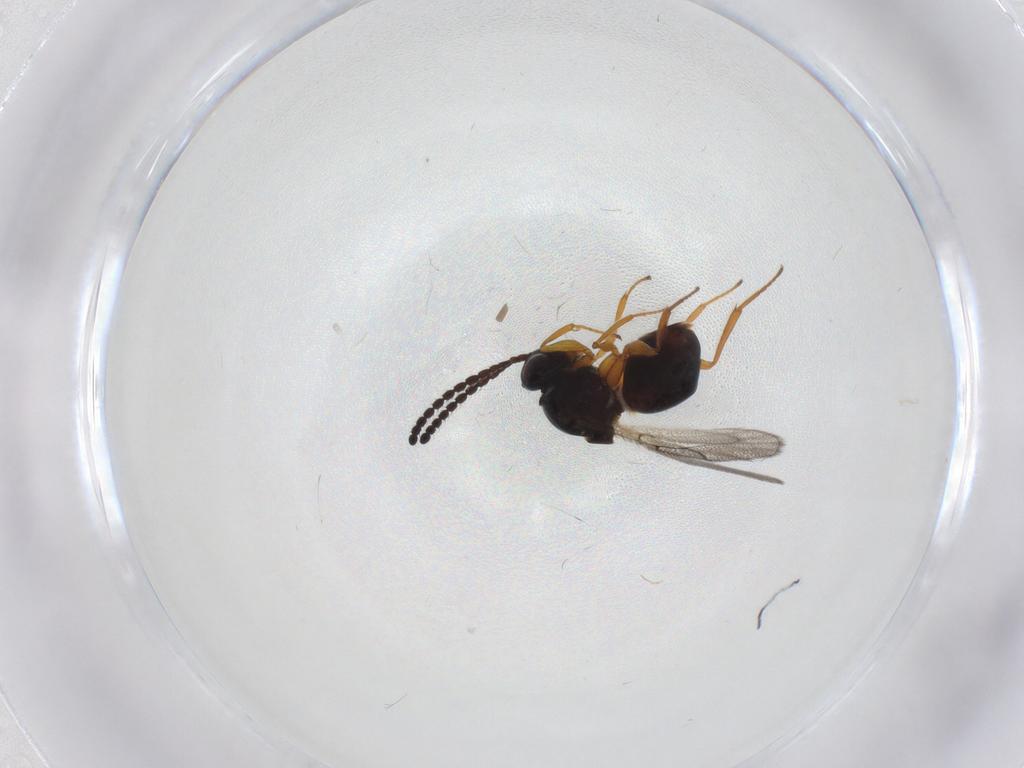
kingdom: Animalia
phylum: Arthropoda
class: Insecta
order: Hymenoptera
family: Figitidae
